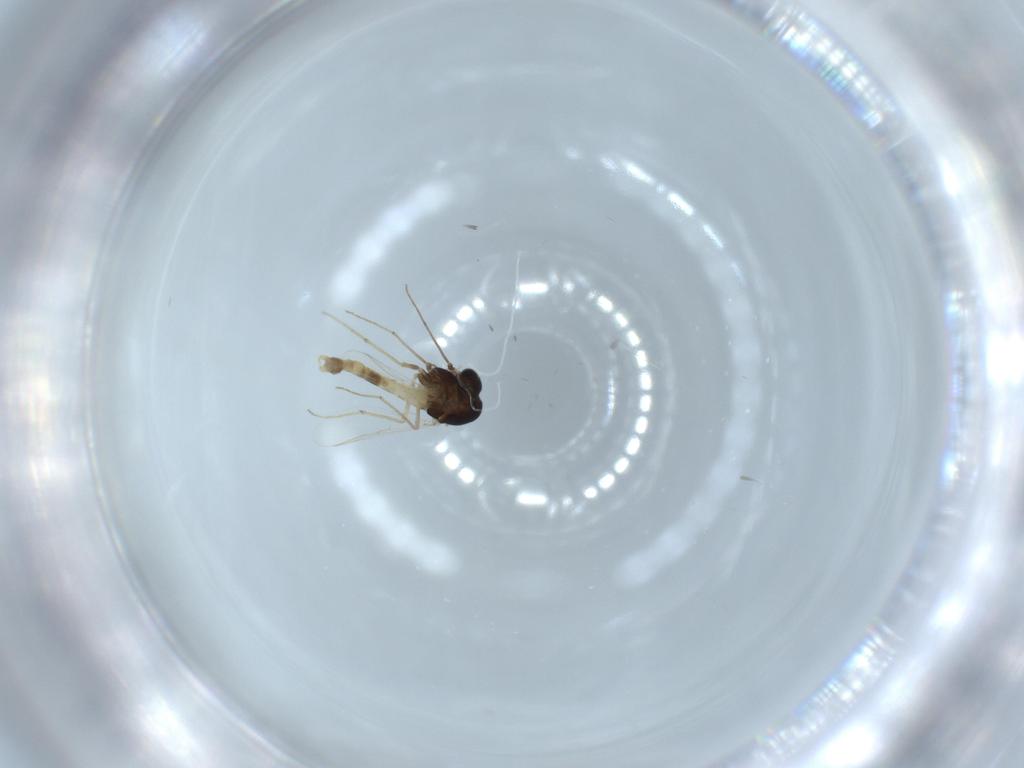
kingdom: Animalia
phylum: Arthropoda
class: Insecta
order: Diptera
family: Chironomidae
